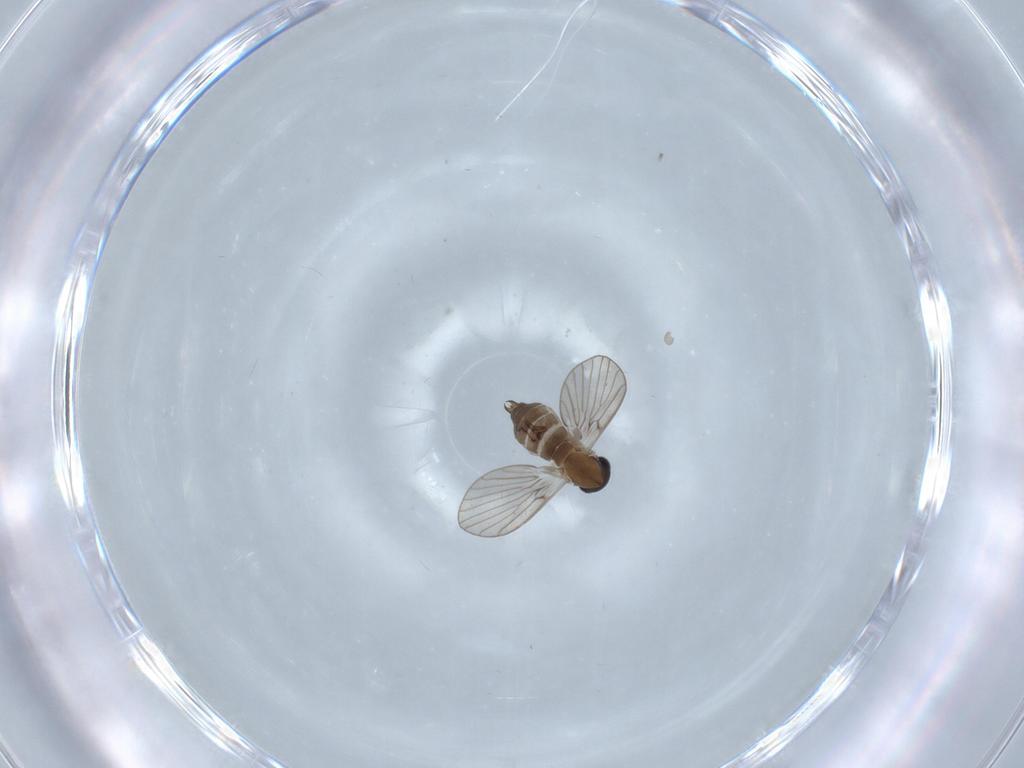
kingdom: Animalia
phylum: Arthropoda
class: Insecta
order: Diptera
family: Psychodidae
